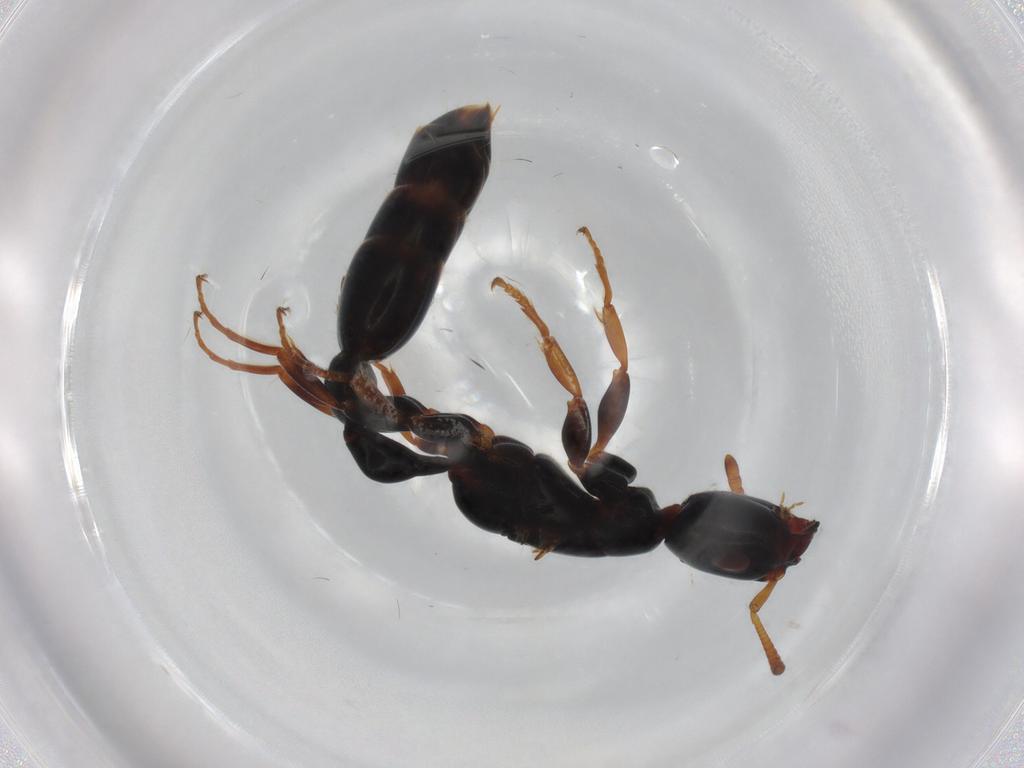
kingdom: Animalia
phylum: Arthropoda
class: Insecta
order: Hymenoptera
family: Formicidae
